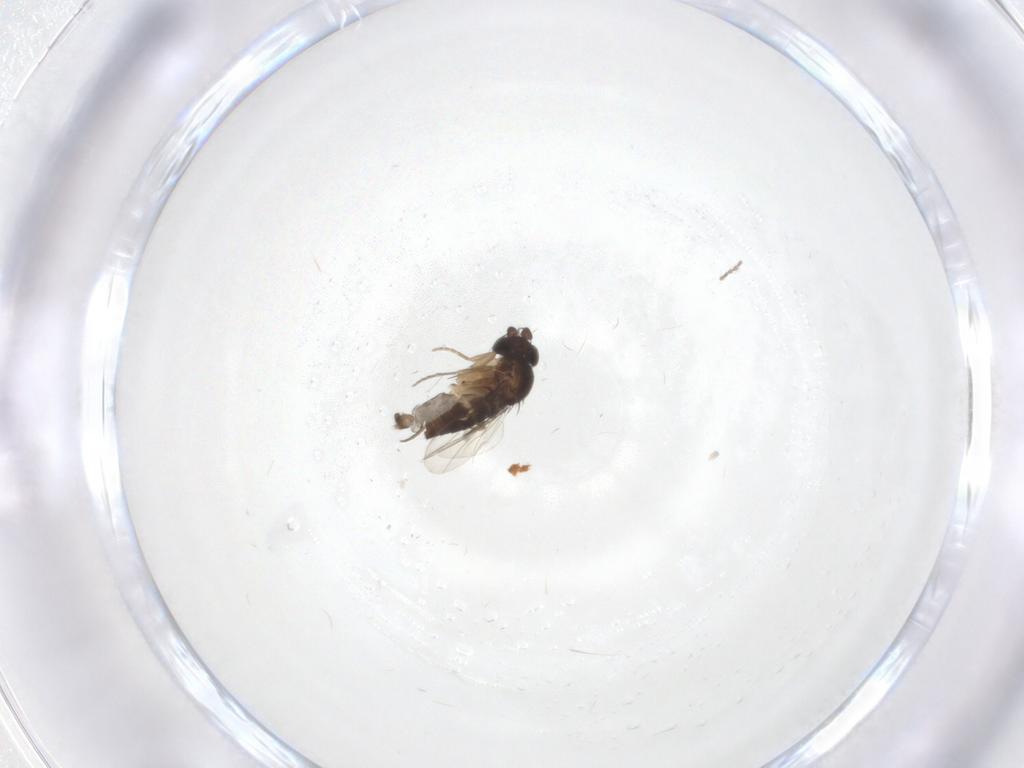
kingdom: Animalia
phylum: Arthropoda
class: Insecta
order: Diptera
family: Phoridae
